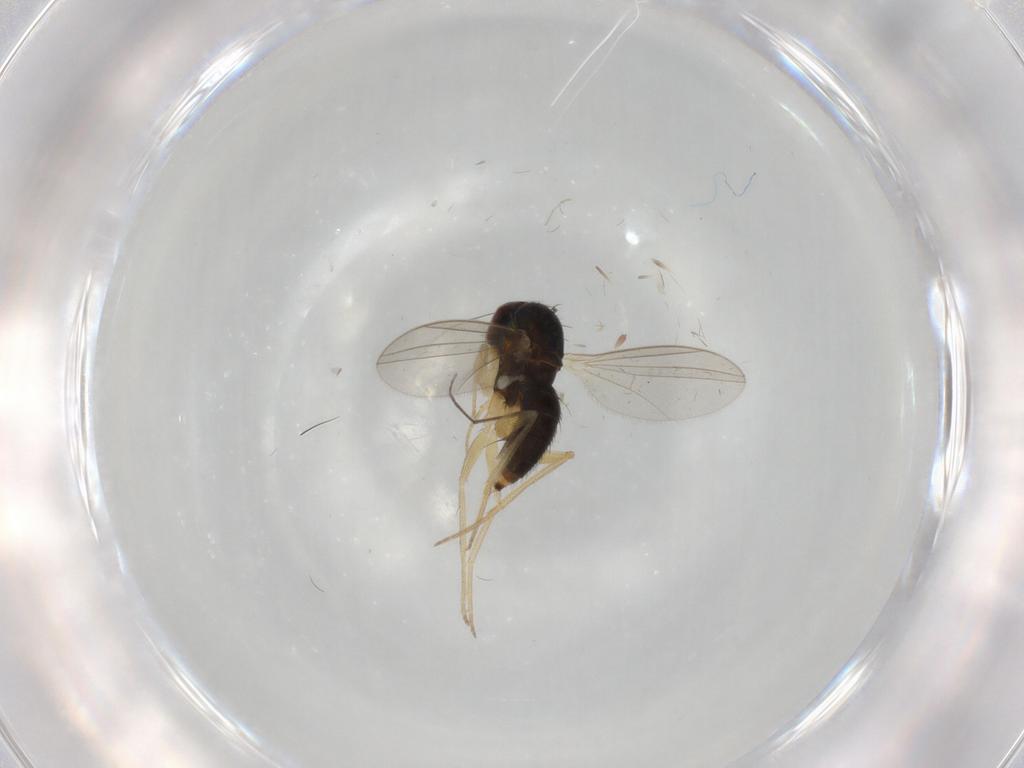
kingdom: Animalia
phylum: Arthropoda
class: Insecta
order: Diptera
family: Dolichopodidae
